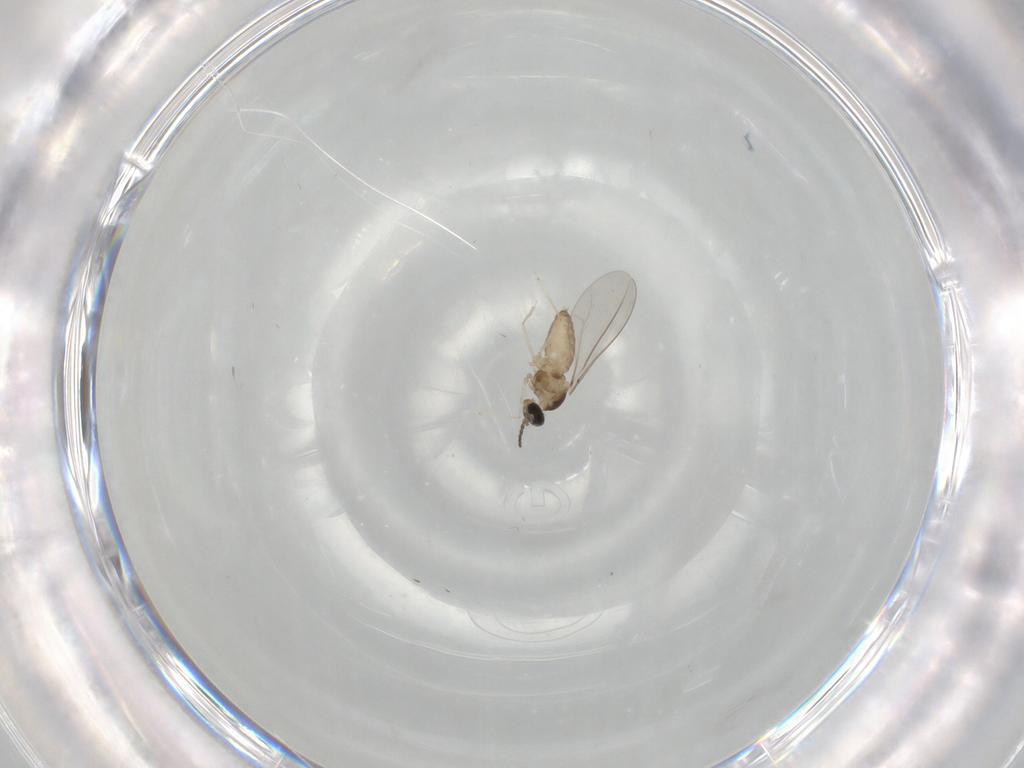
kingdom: Animalia
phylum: Arthropoda
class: Insecta
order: Diptera
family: Cecidomyiidae
